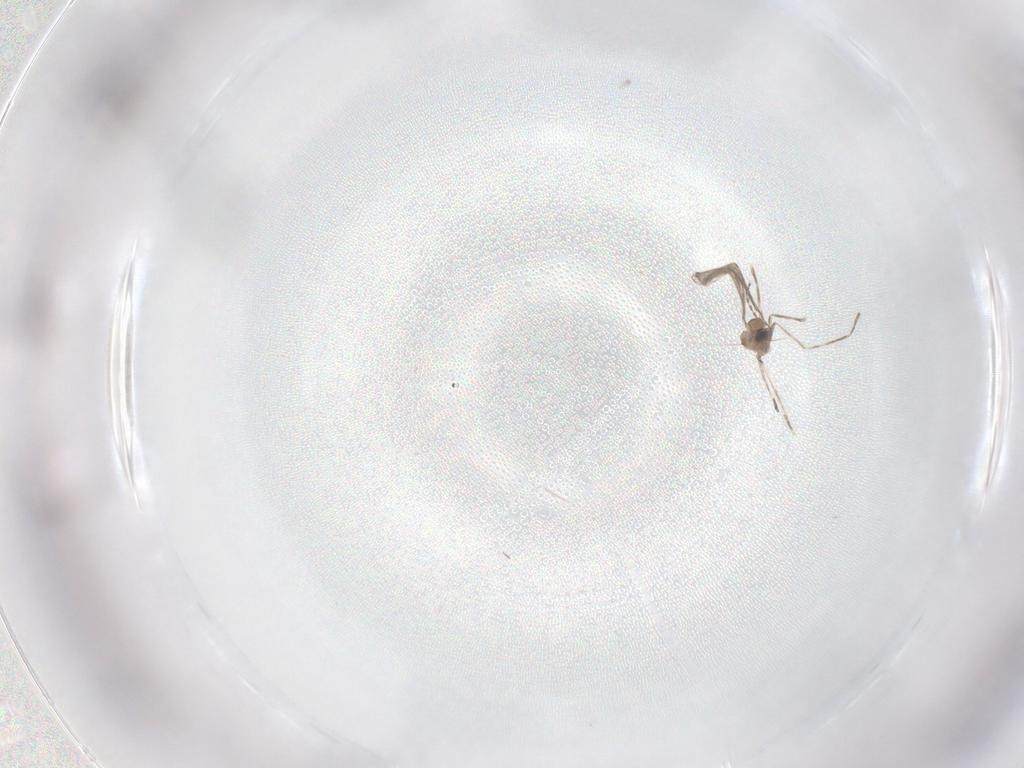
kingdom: Animalia
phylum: Arthropoda
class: Insecta
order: Diptera
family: Cecidomyiidae
